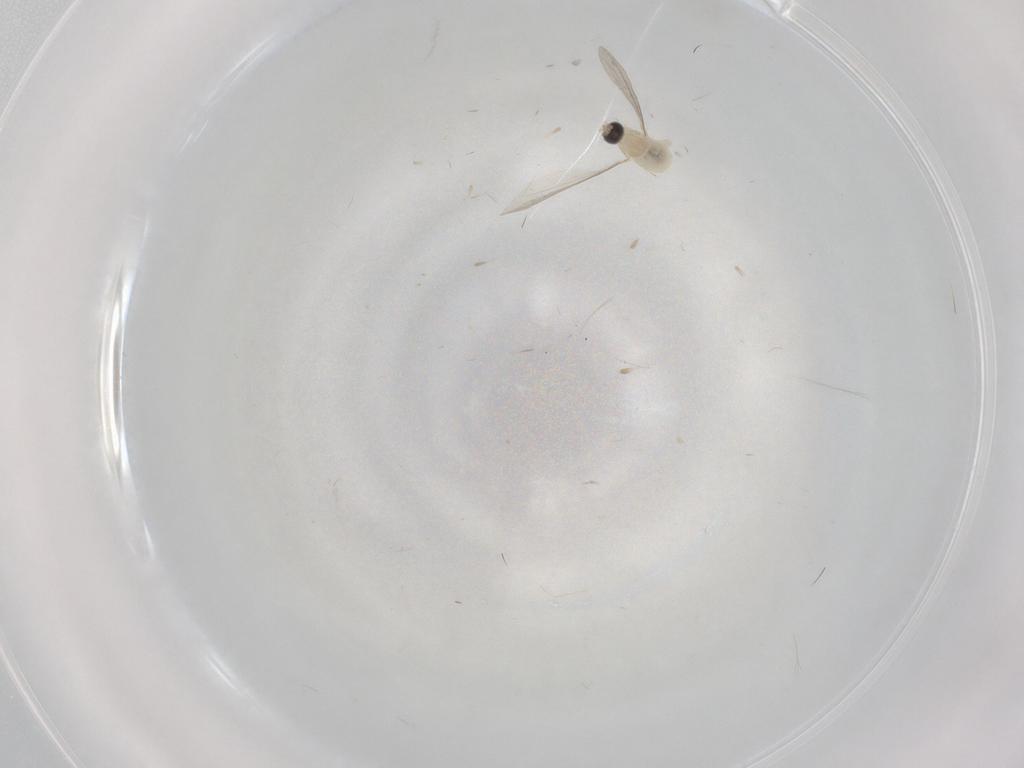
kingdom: Animalia
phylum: Arthropoda
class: Insecta
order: Diptera
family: Cecidomyiidae
